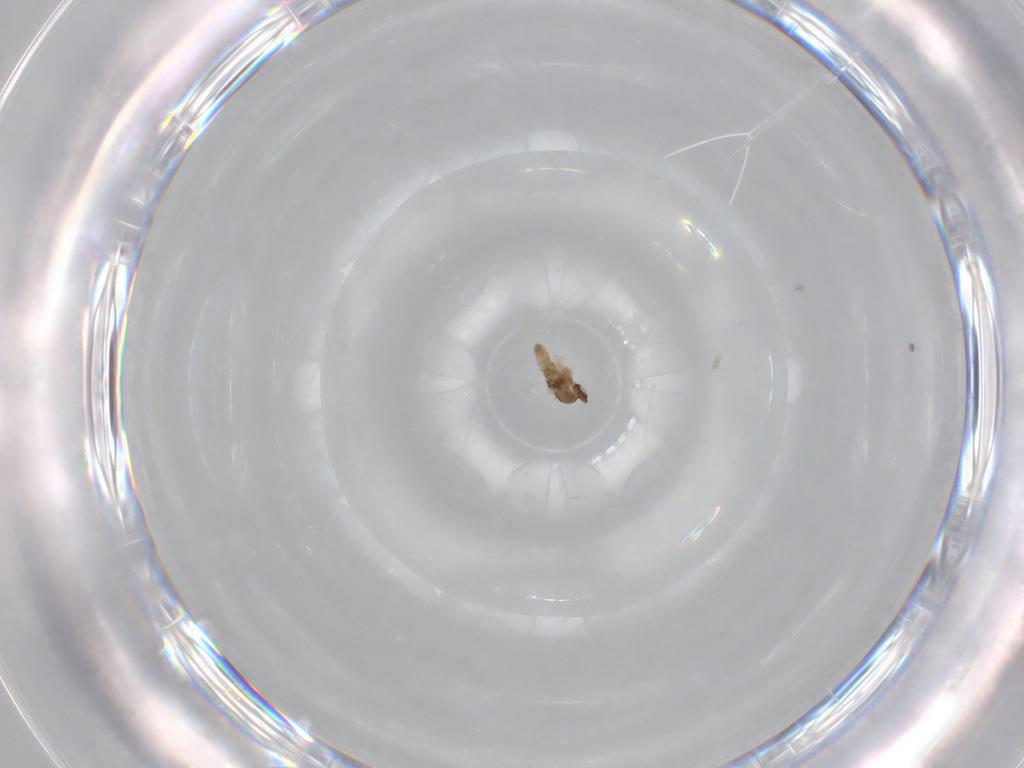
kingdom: Animalia
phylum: Arthropoda
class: Insecta
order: Diptera
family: Cecidomyiidae
